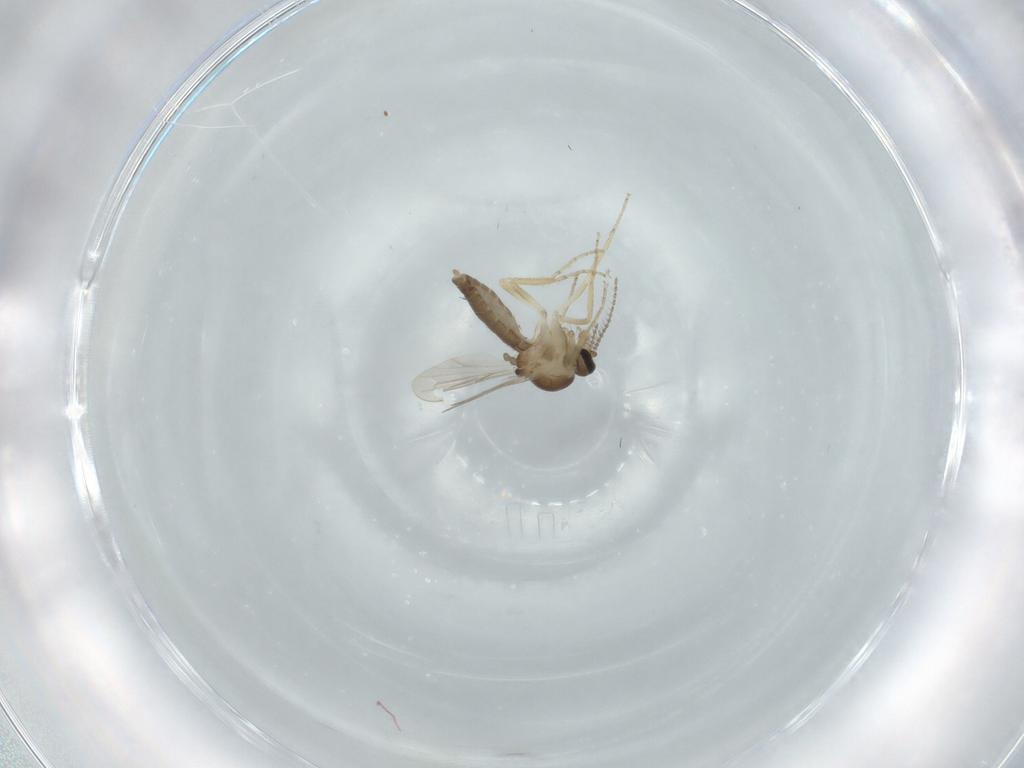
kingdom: Animalia
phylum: Arthropoda
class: Insecta
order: Diptera
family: Ceratopogonidae
